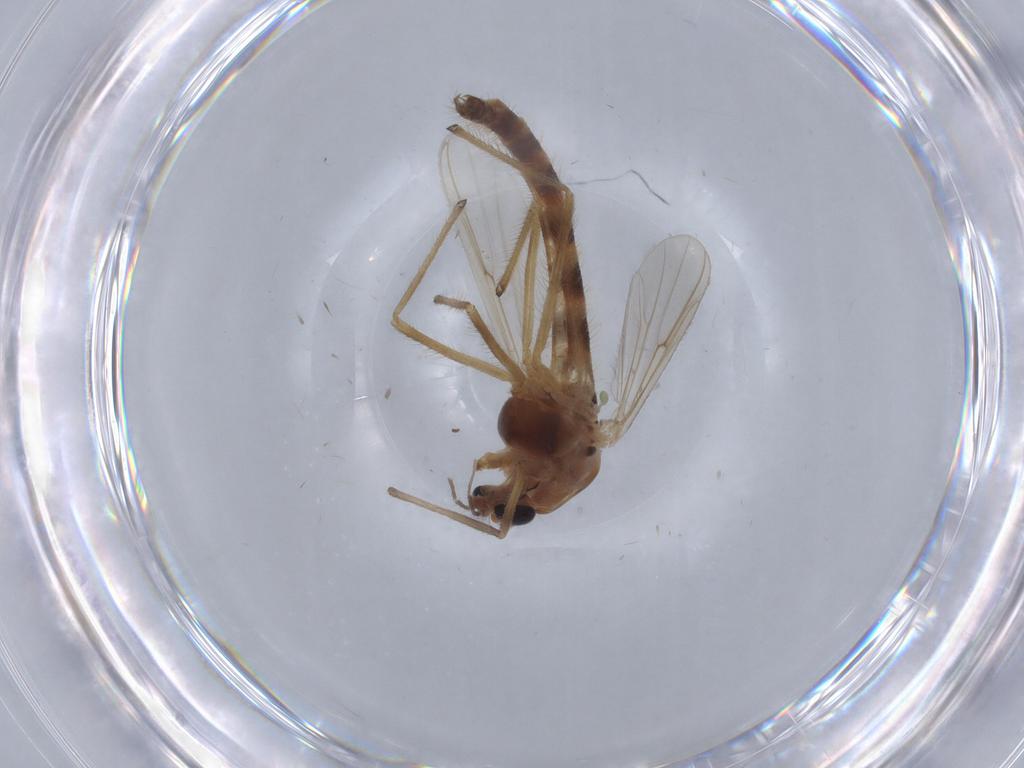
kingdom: Animalia
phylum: Arthropoda
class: Insecta
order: Diptera
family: Chironomidae
